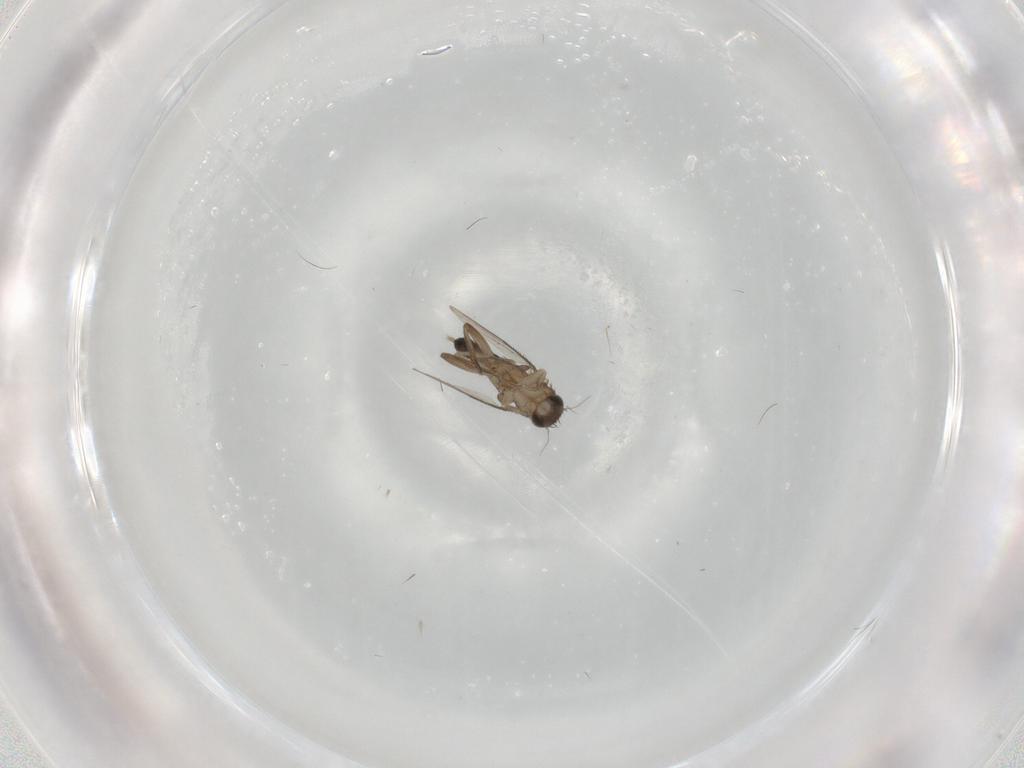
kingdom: Animalia
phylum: Arthropoda
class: Insecta
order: Diptera
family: Phoridae
